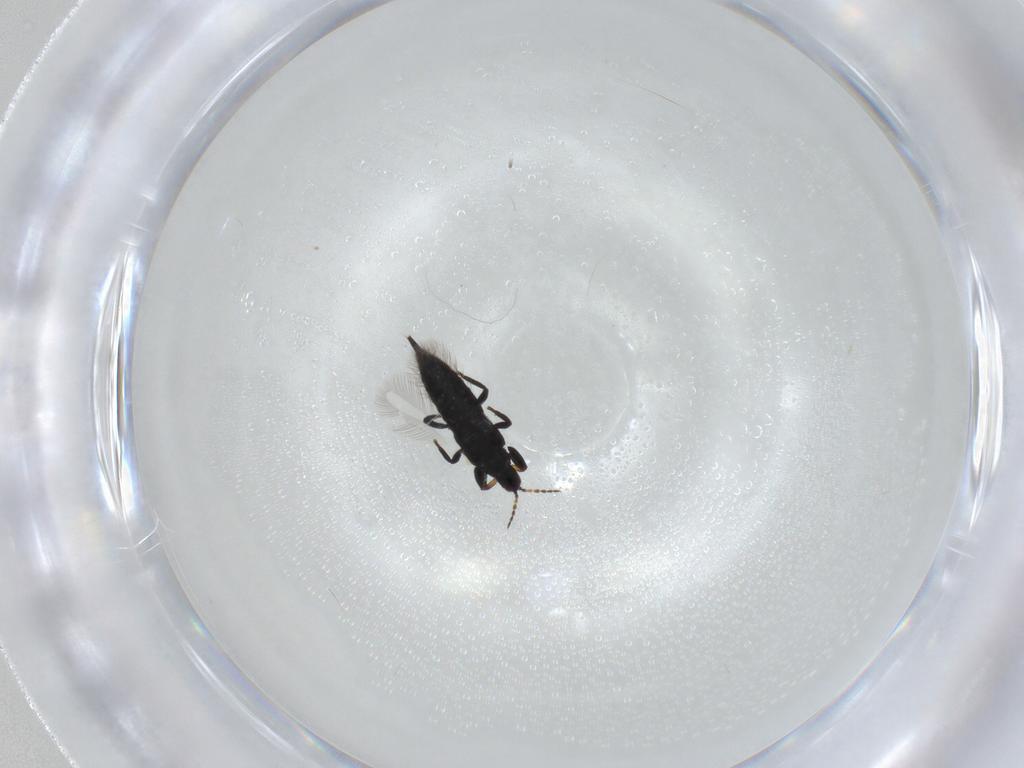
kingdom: Animalia
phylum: Arthropoda
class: Insecta
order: Thysanoptera
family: Phlaeothripidae
